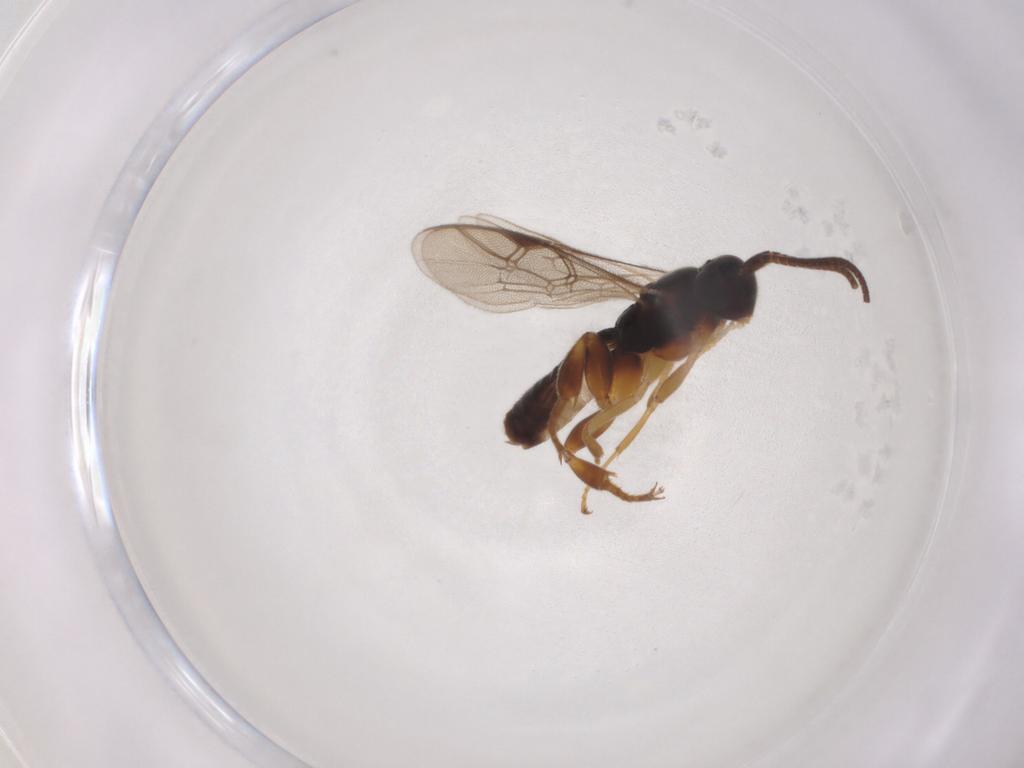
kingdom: Animalia
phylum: Arthropoda
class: Insecta
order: Hymenoptera
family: Ichneumonidae
